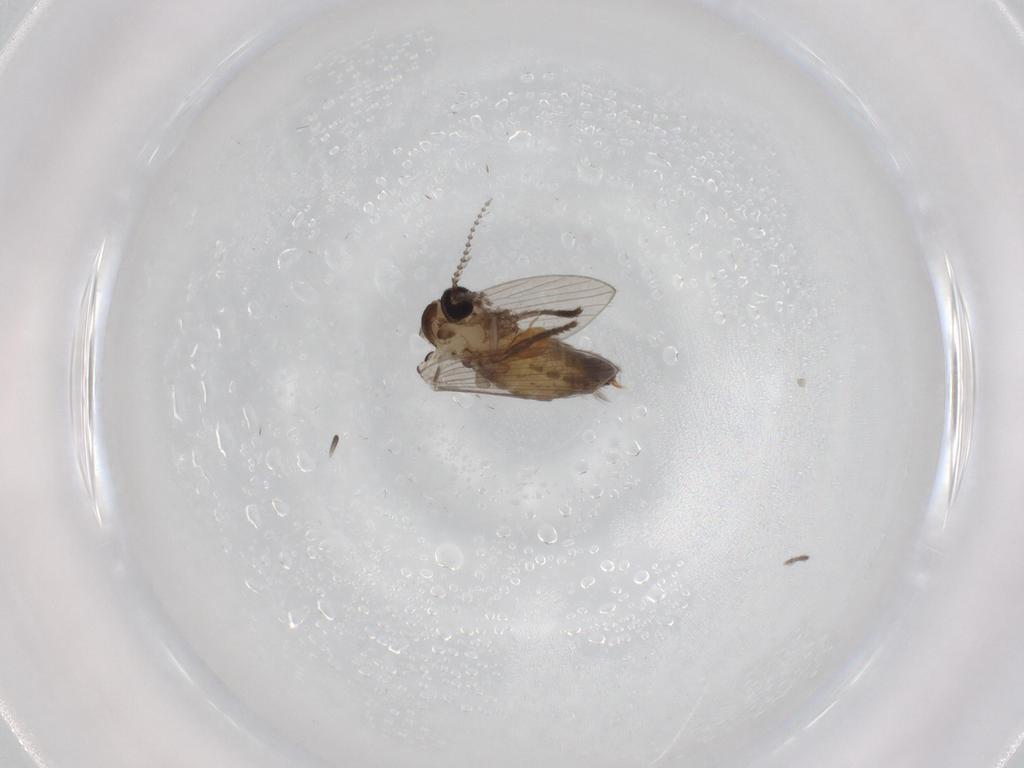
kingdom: Animalia
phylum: Arthropoda
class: Insecta
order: Diptera
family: Psychodidae
